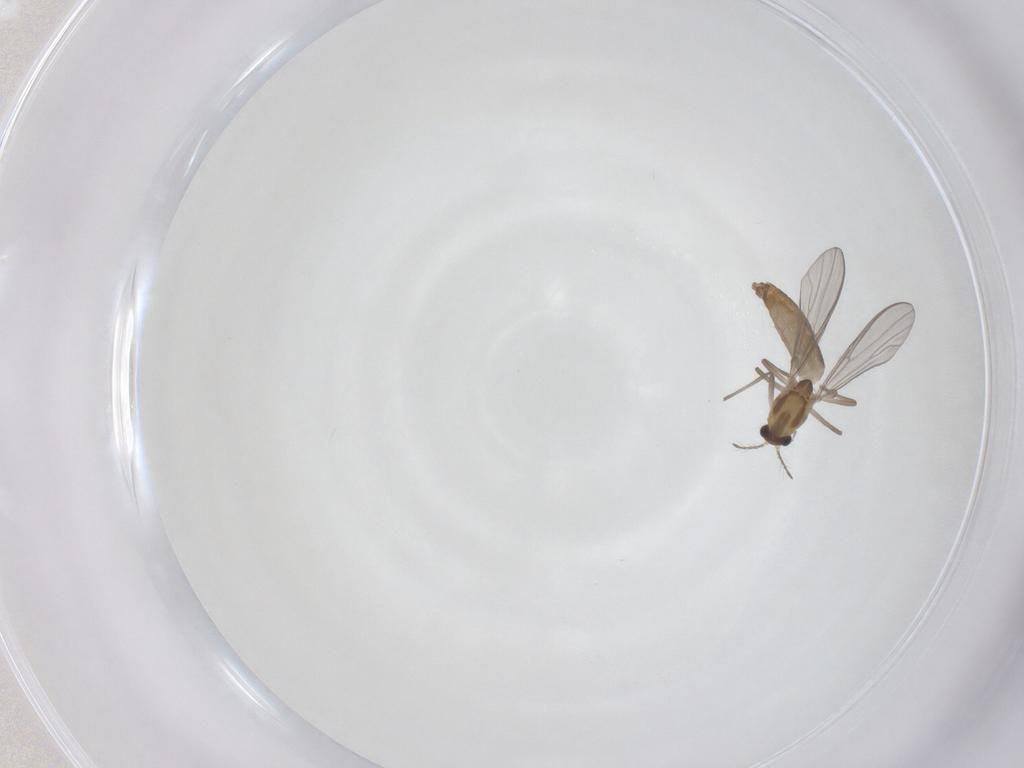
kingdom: Animalia
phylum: Arthropoda
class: Insecta
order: Diptera
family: Chironomidae
